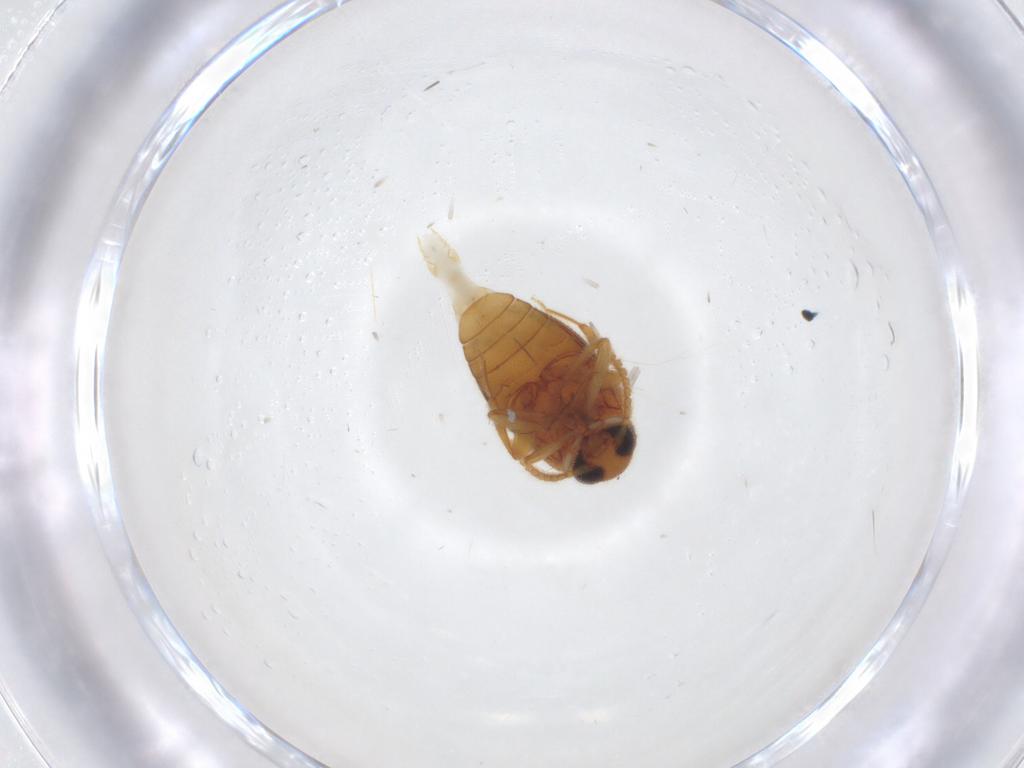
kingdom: Animalia
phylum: Arthropoda
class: Insecta
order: Coleoptera
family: Aderidae
